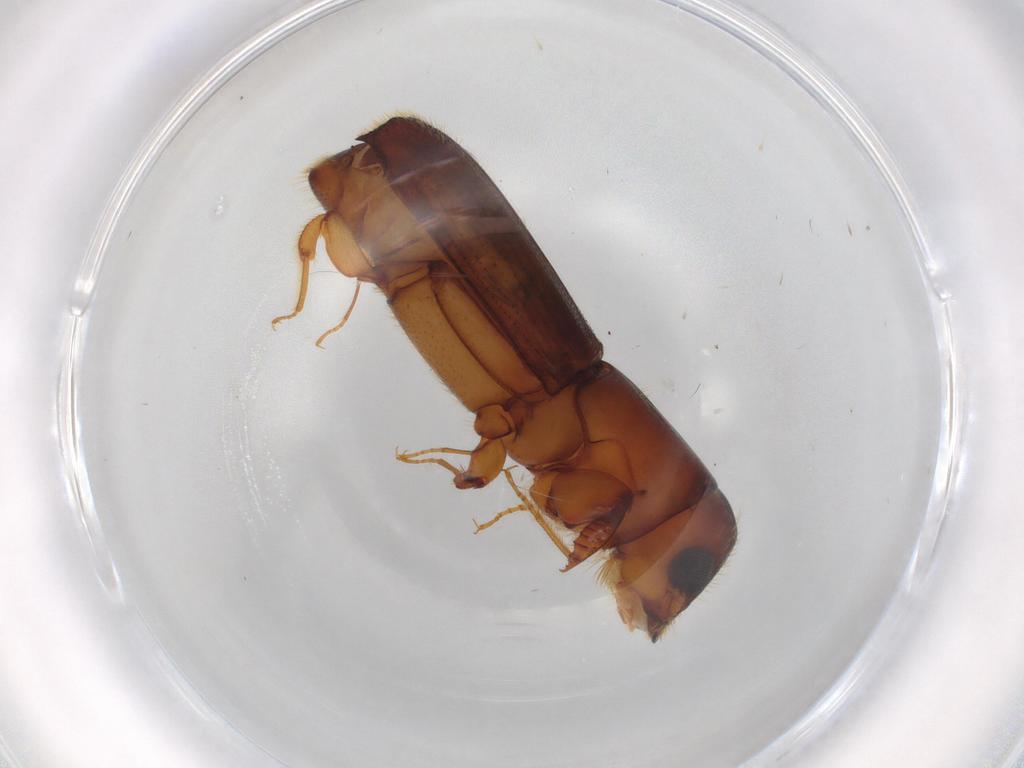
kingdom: Animalia
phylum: Arthropoda
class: Insecta
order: Coleoptera
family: Curculionidae
